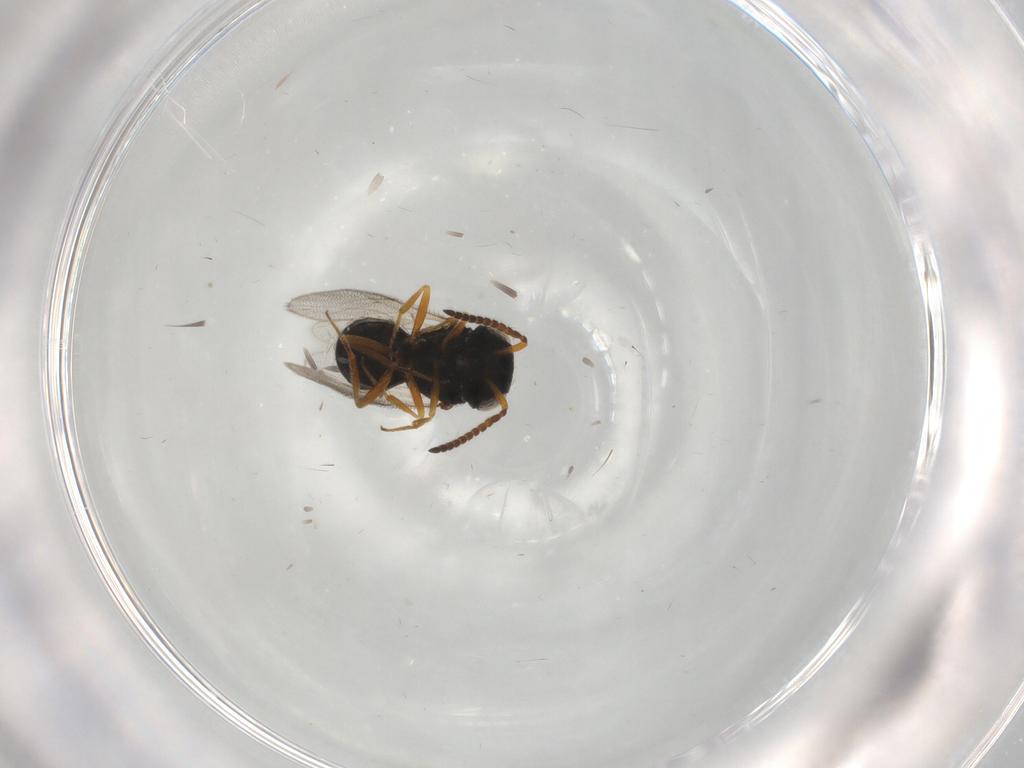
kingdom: Animalia
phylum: Arthropoda
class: Insecta
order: Hymenoptera
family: Scelionidae
